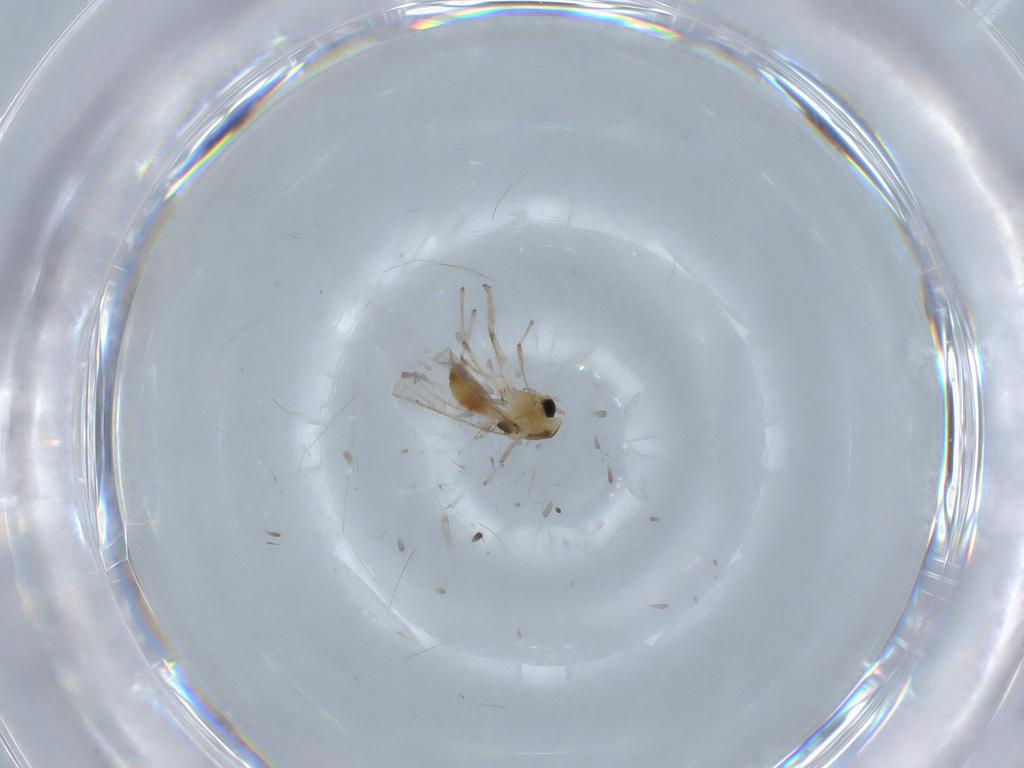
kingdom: Animalia
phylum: Arthropoda
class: Insecta
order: Diptera
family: Chironomidae
